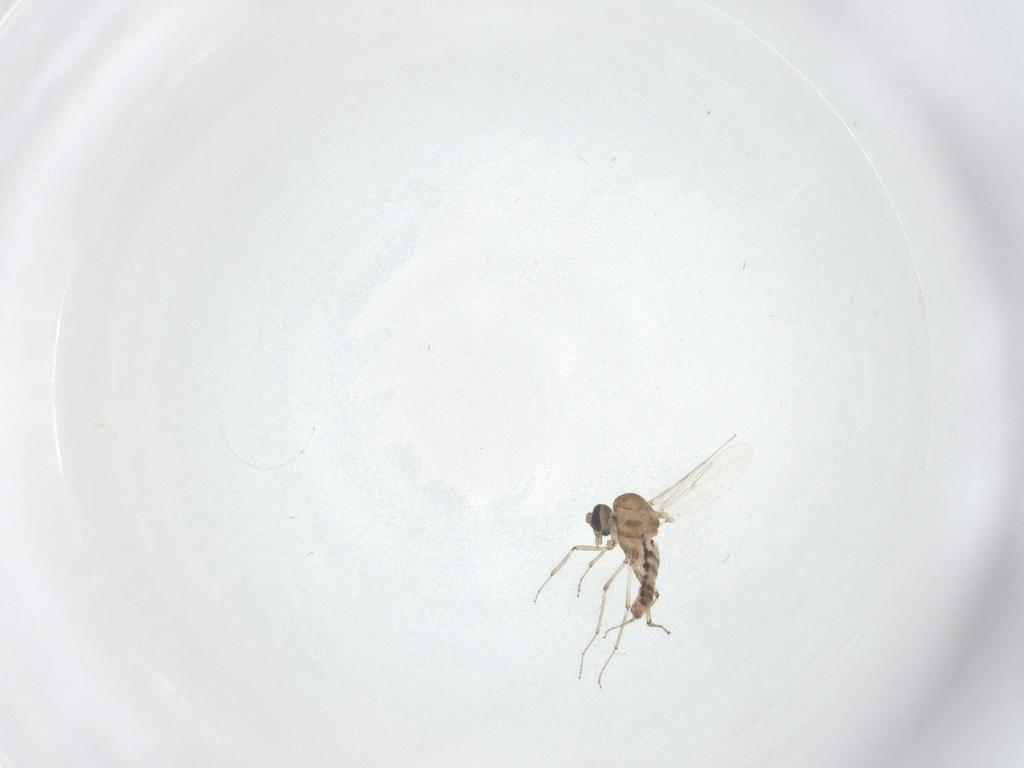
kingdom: Animalia
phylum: Arthropoda
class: Insecta
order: Diptera
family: Ceratopogonidae
